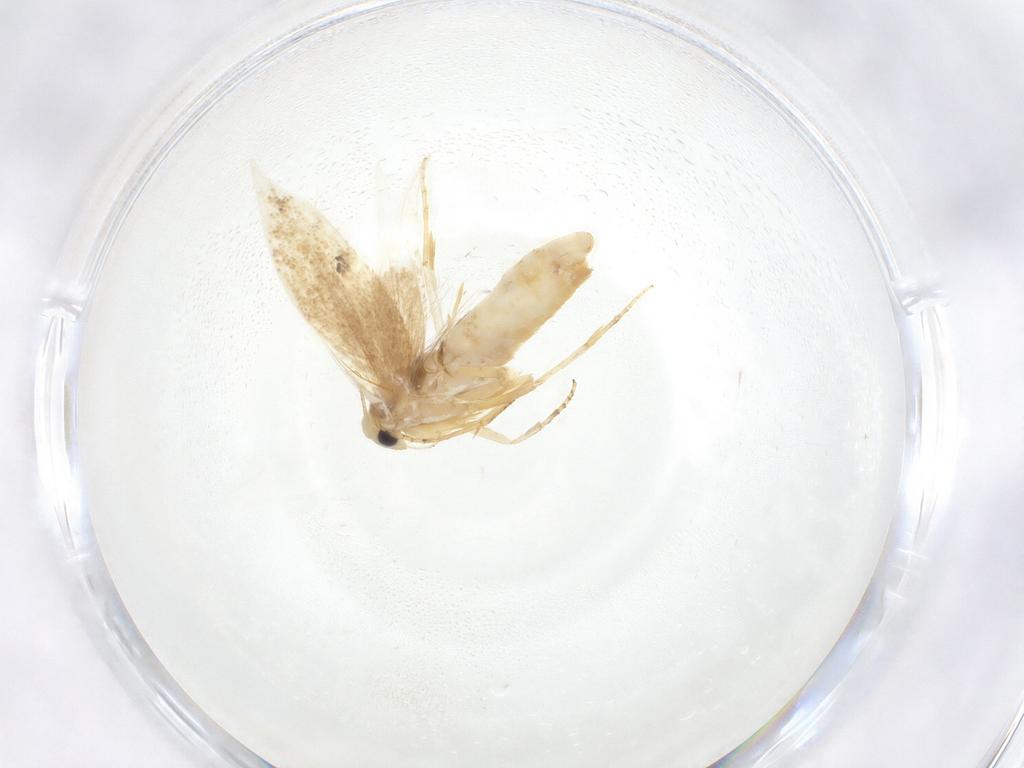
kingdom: Animalia
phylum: Arthropoda
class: Insecta
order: Lepidoptera
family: Bucculatricidae
